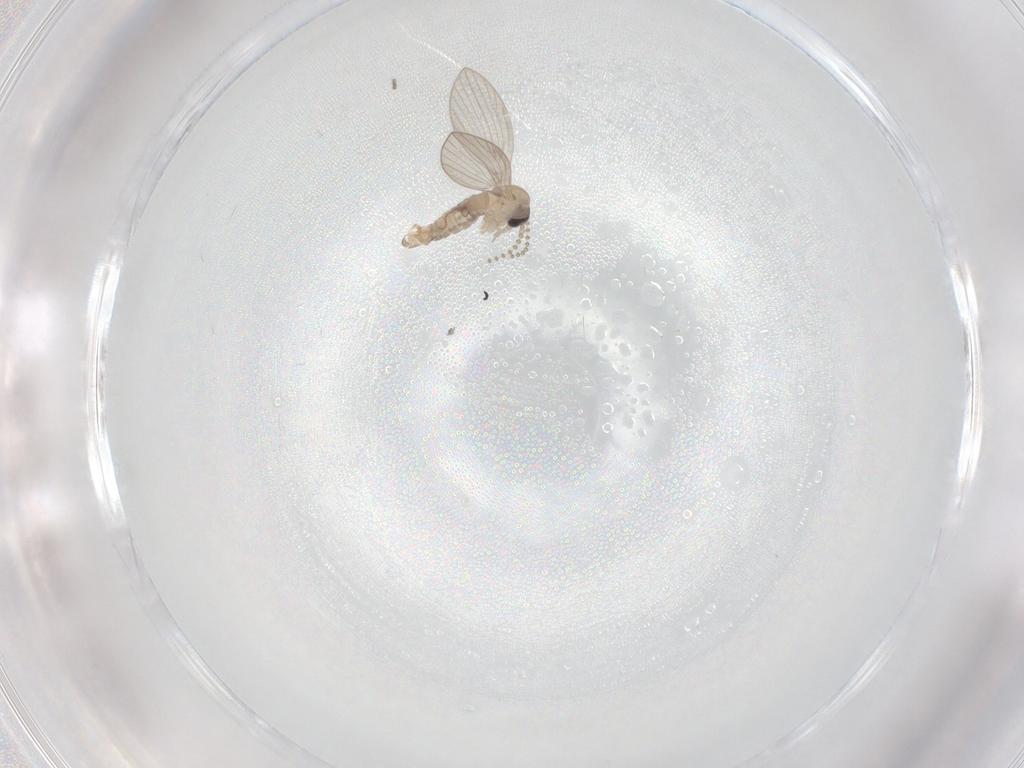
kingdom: Animalia
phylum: Arthropoda
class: Insecta
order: Diptera
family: Psychodidae
